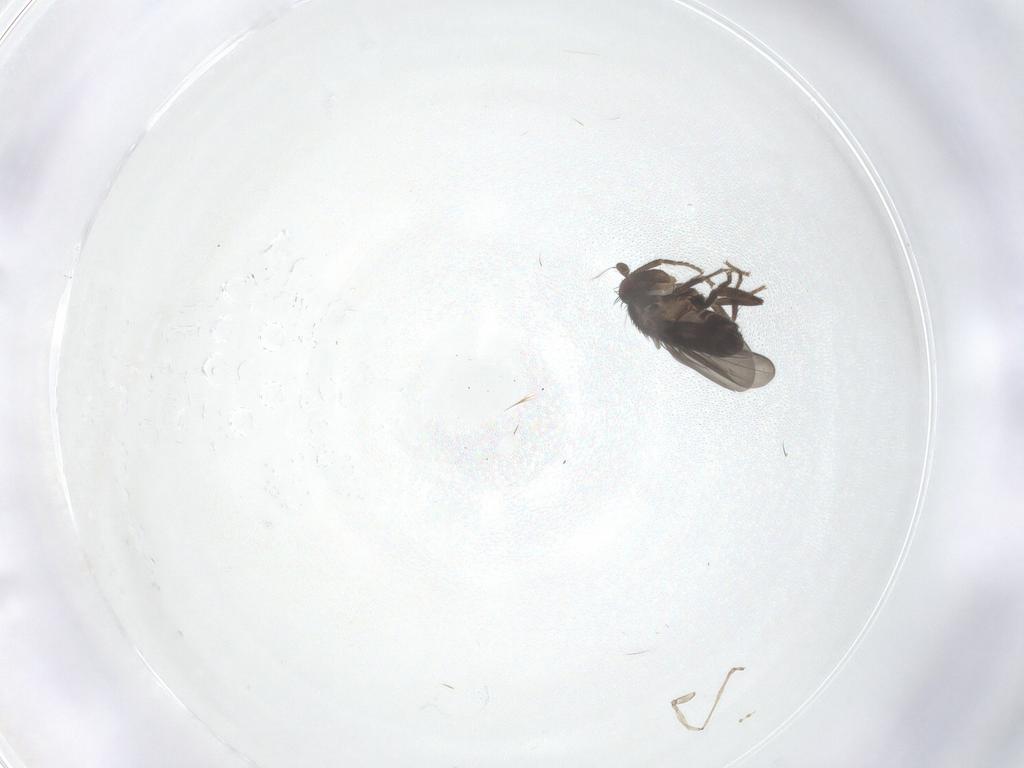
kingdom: Animalia
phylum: Arthropoda
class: Insecta
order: Diptera
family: Sphaeroceridae
